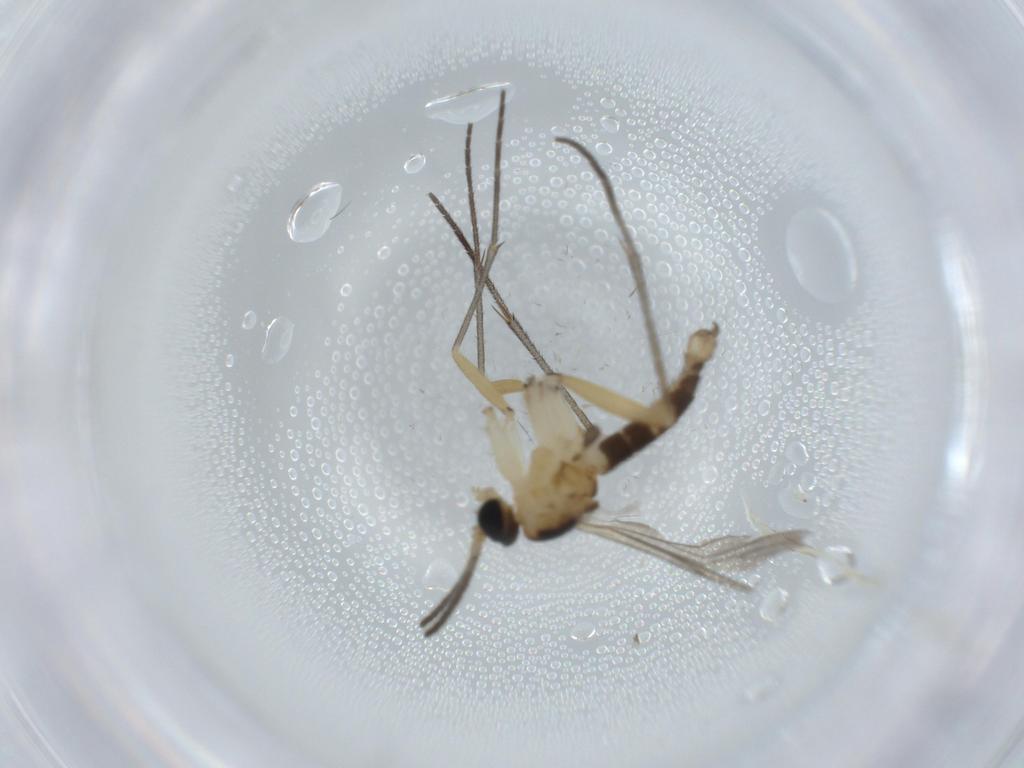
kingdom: Animalia
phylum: Arthropoda
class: Insecta
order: Diptera
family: Sciaridae
